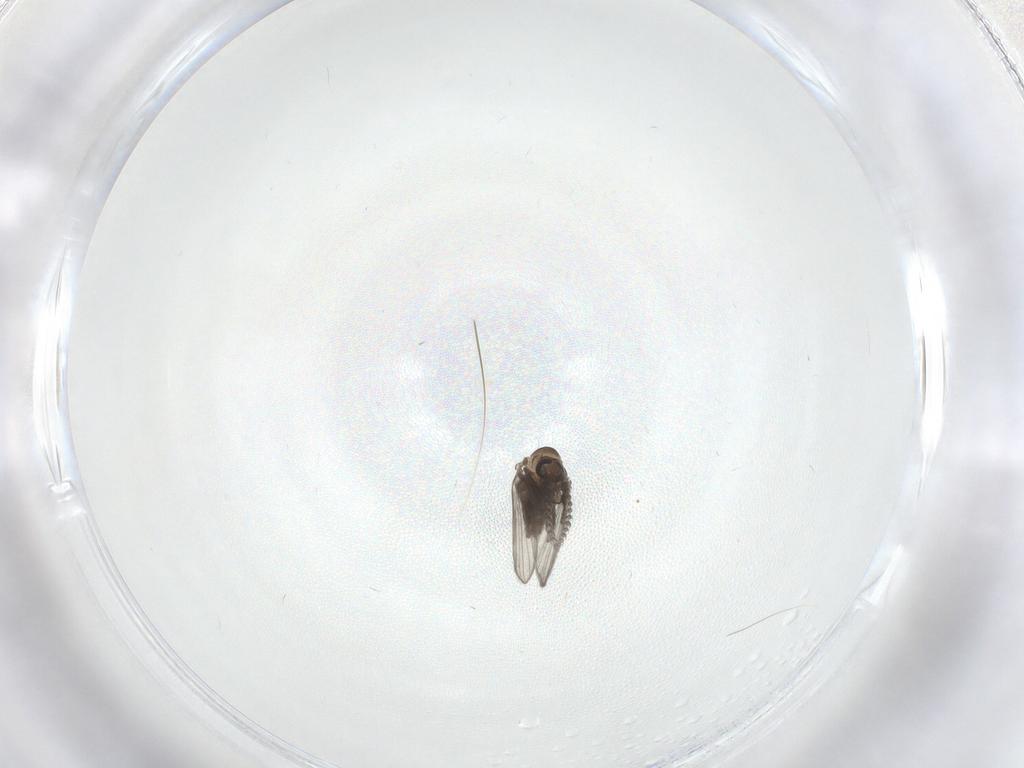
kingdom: Animalia
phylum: Arthropoda
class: Insecta
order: Diptera
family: Psychodidae
